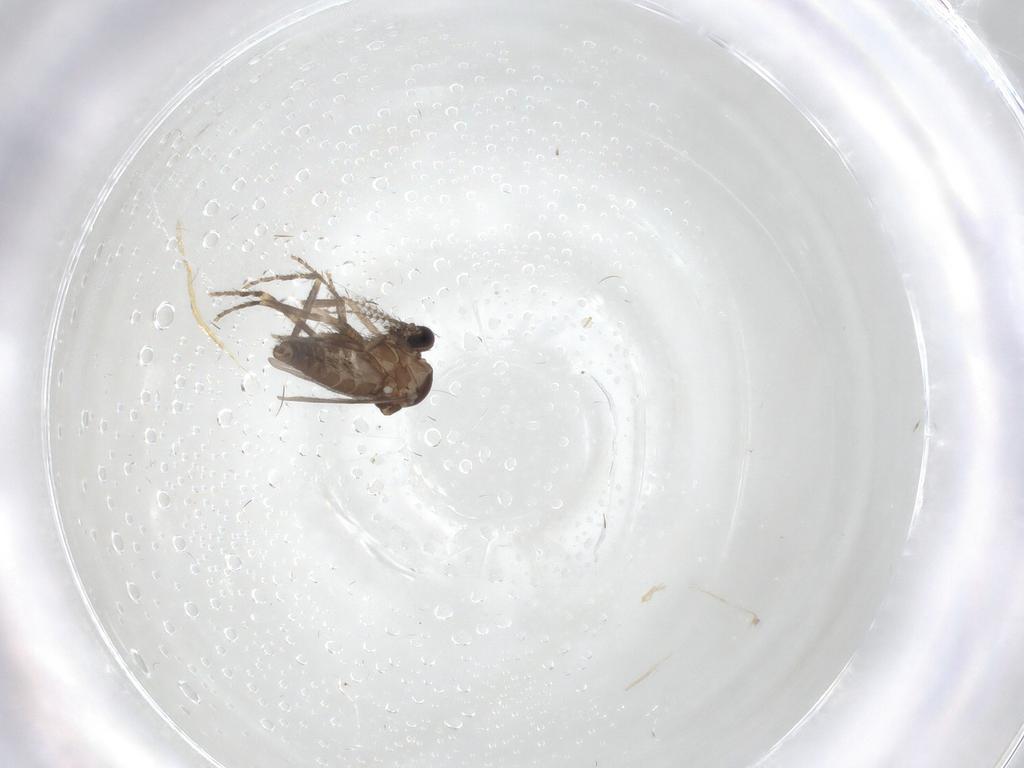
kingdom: Animalia
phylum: Arthropoda
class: Insecta
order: Diptera
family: Ceratopogonidae
